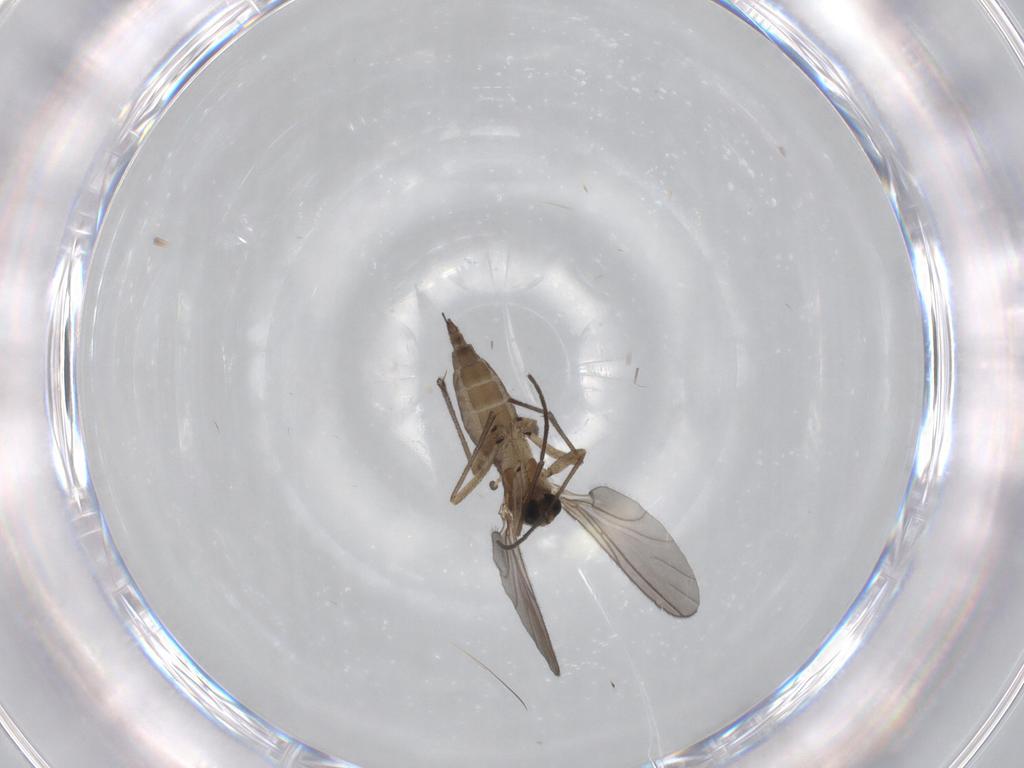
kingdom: Animalia
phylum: Arthropoda
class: Insecta
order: Diptera
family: Sciaridae
